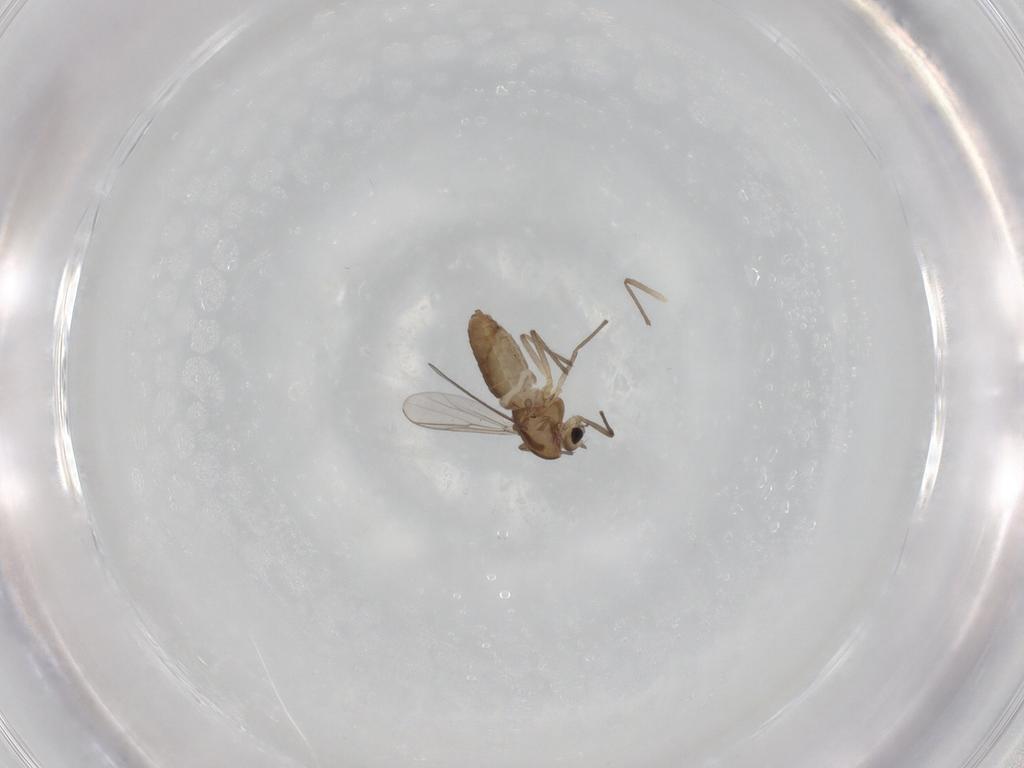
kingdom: Animalia
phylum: Arthropoda
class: Insecta
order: Diptera
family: Chironomidae
